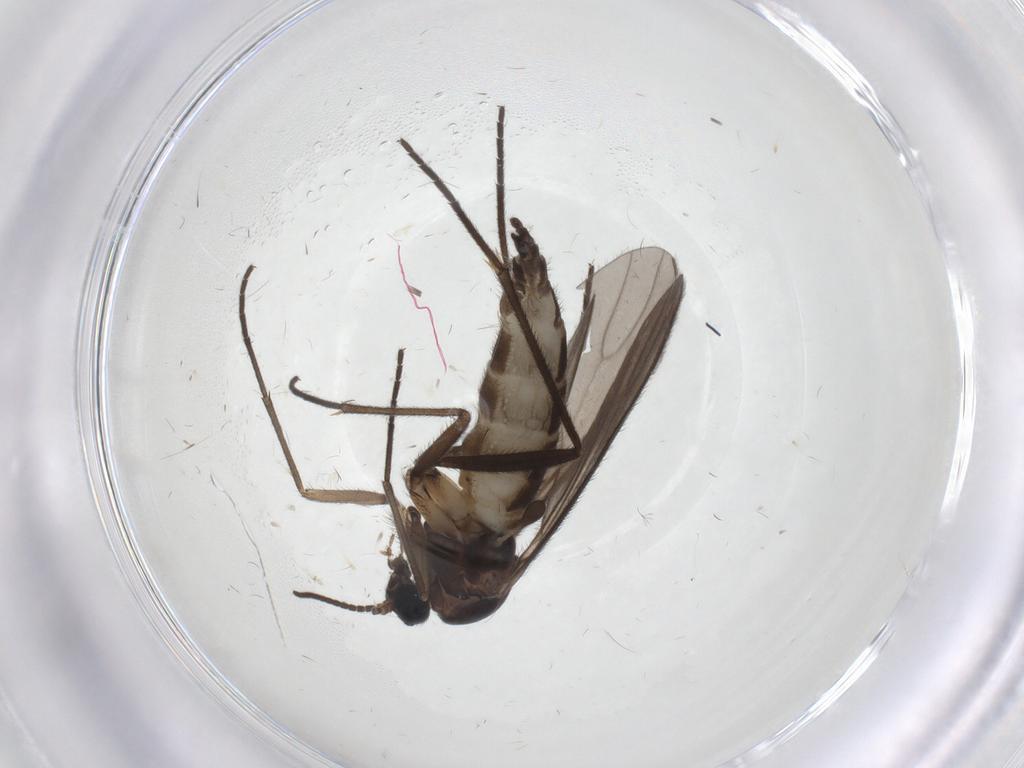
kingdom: Animalia
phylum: Arthropoda
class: Insecta
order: Diptera
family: Sciaridae
